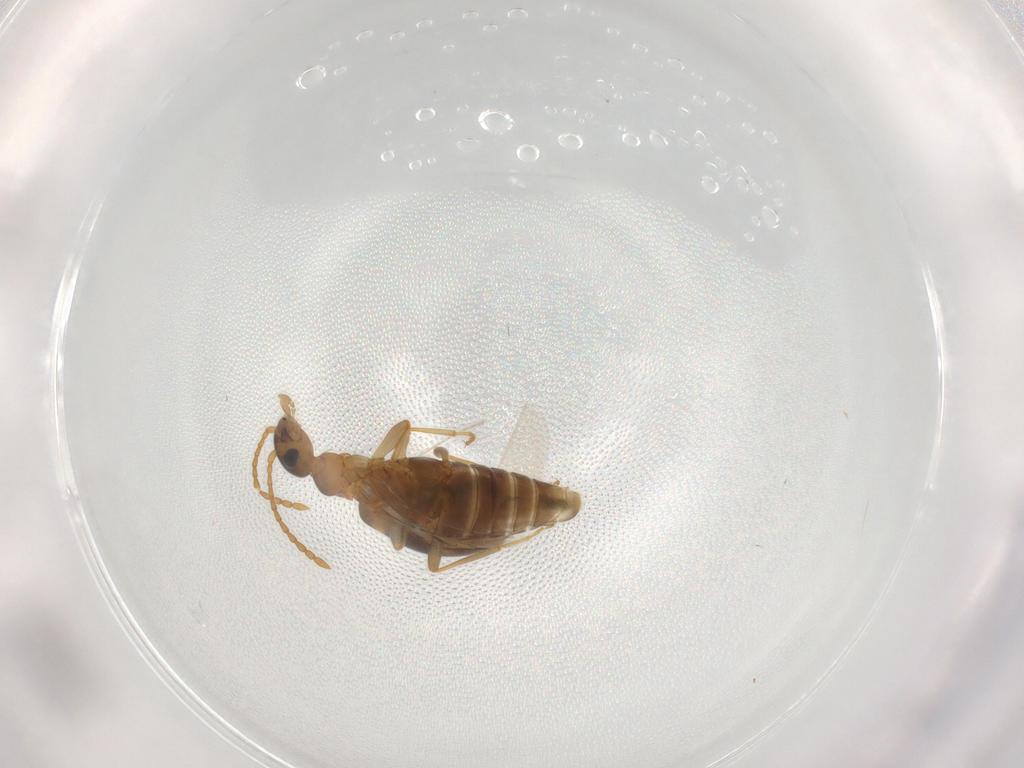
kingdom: Animalia
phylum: Arthropoda
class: Insecta
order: Coleoptera
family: Anthicidae
